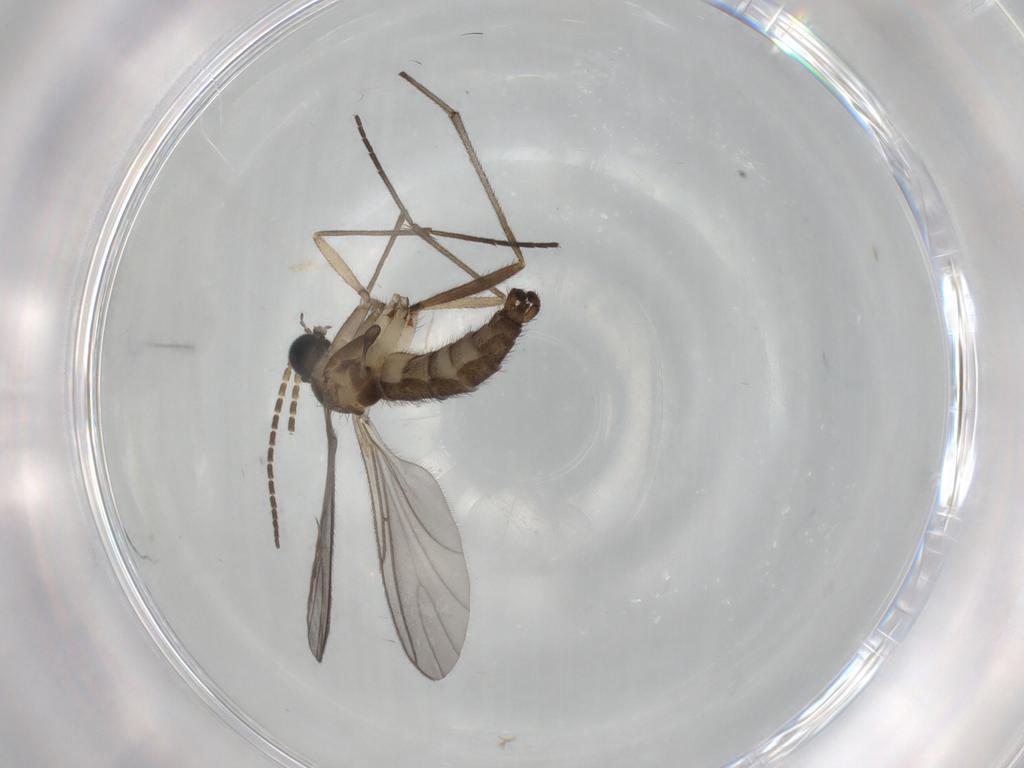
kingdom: Animalia
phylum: Arthropoda
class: Insecta
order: Diptera
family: Sciaridae
